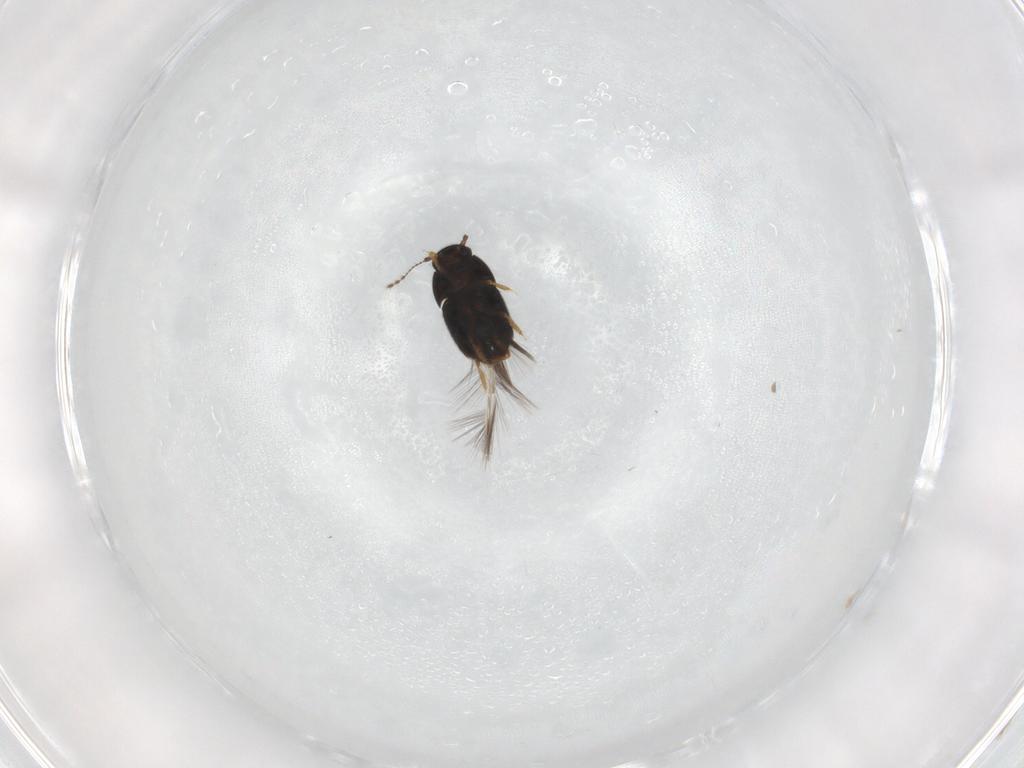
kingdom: Animalia
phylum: Arthropoda
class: Insecta
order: Coleoptera
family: Ptiliidae
